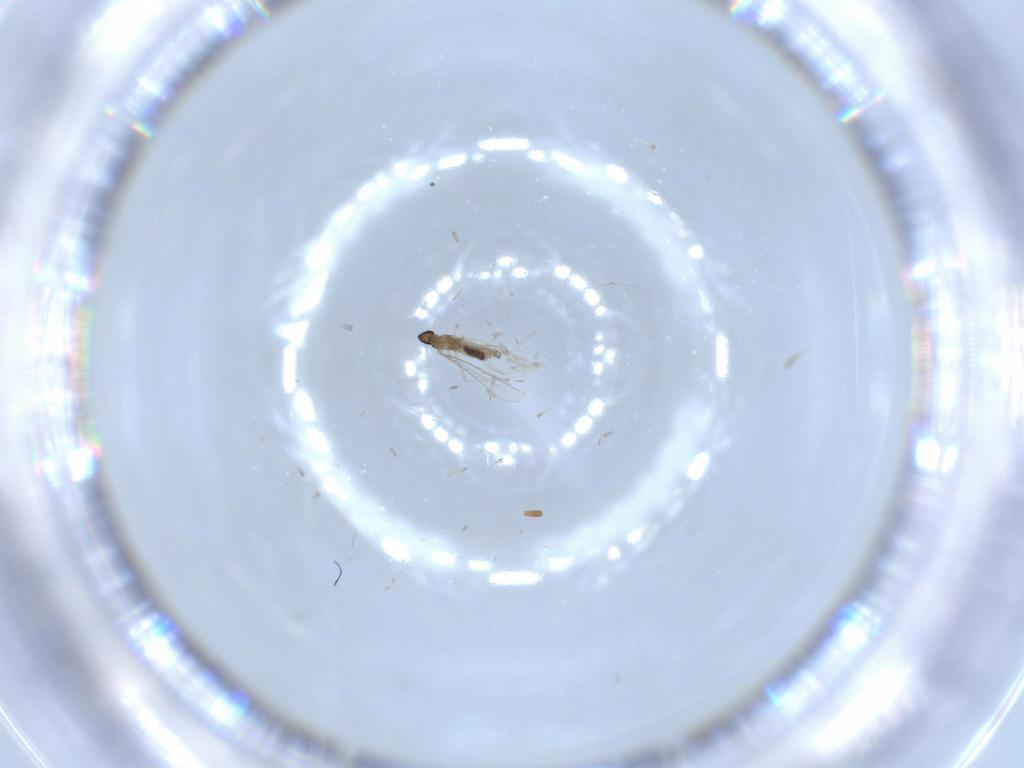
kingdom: Animalia
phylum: Arthropoda
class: Insecta
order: Diptera
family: Cecidomyiidae
